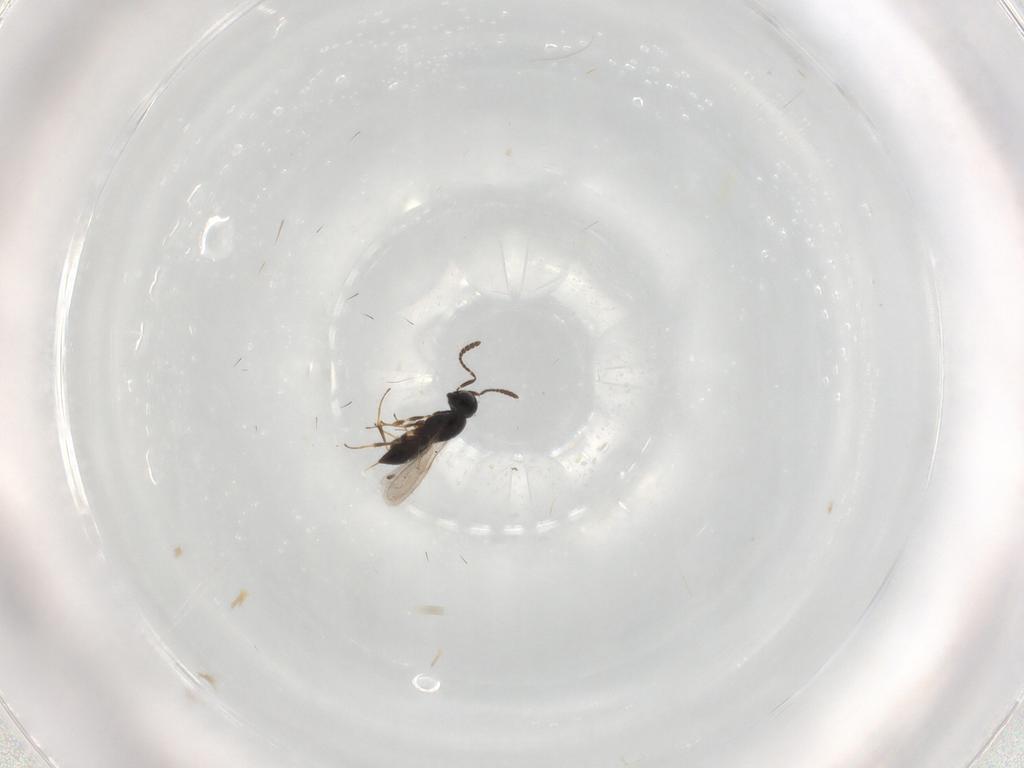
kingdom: Animalia
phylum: Arthropoda
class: Insecta
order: Hymenoptera
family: Scelionidae
